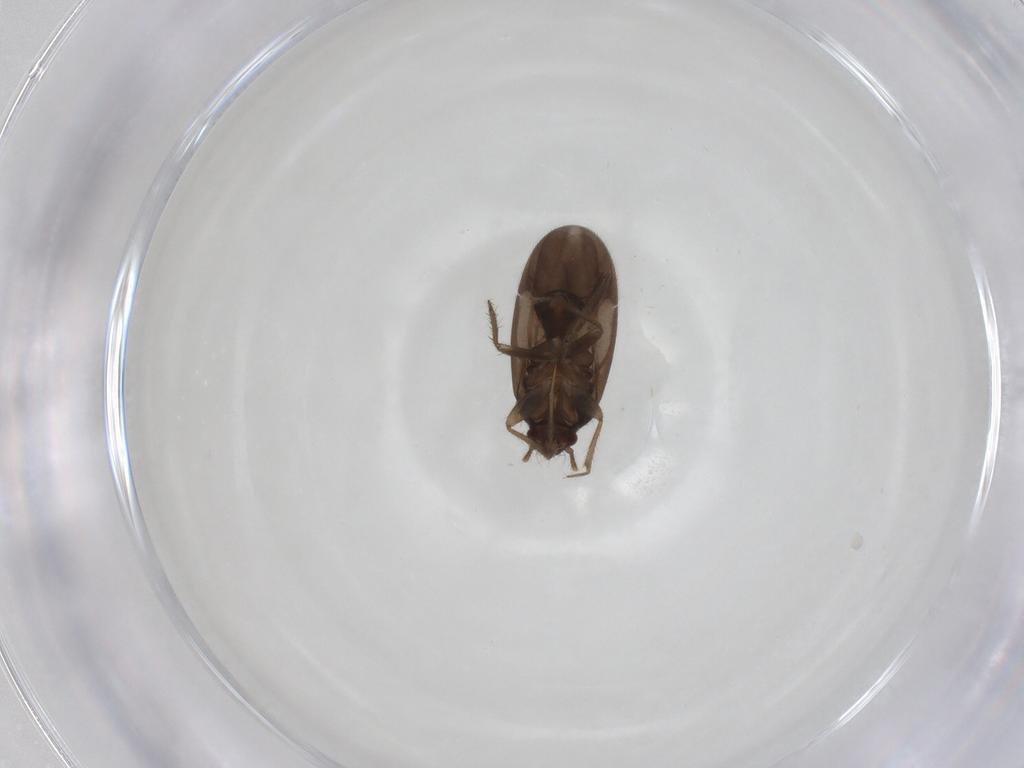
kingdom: Animalia
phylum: Arthropoda
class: Insecta
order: Hemiptera
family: Ceratocombidae
